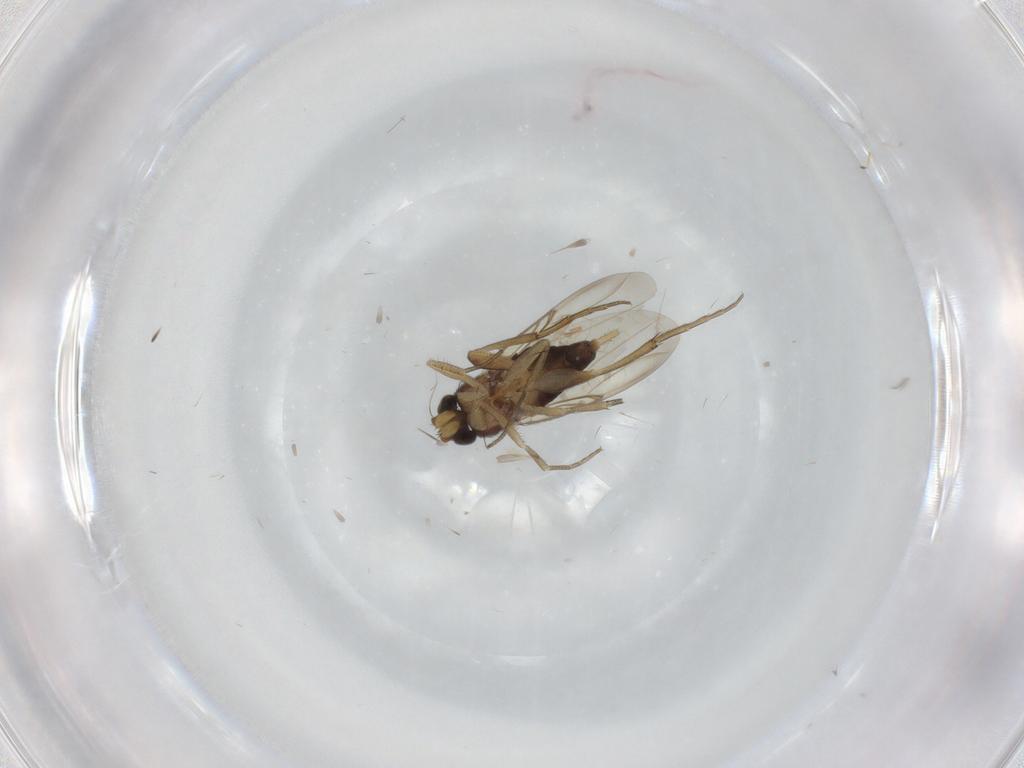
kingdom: Animalia
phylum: Arthropoda
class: Insecta
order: Diptera
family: Phoridae
